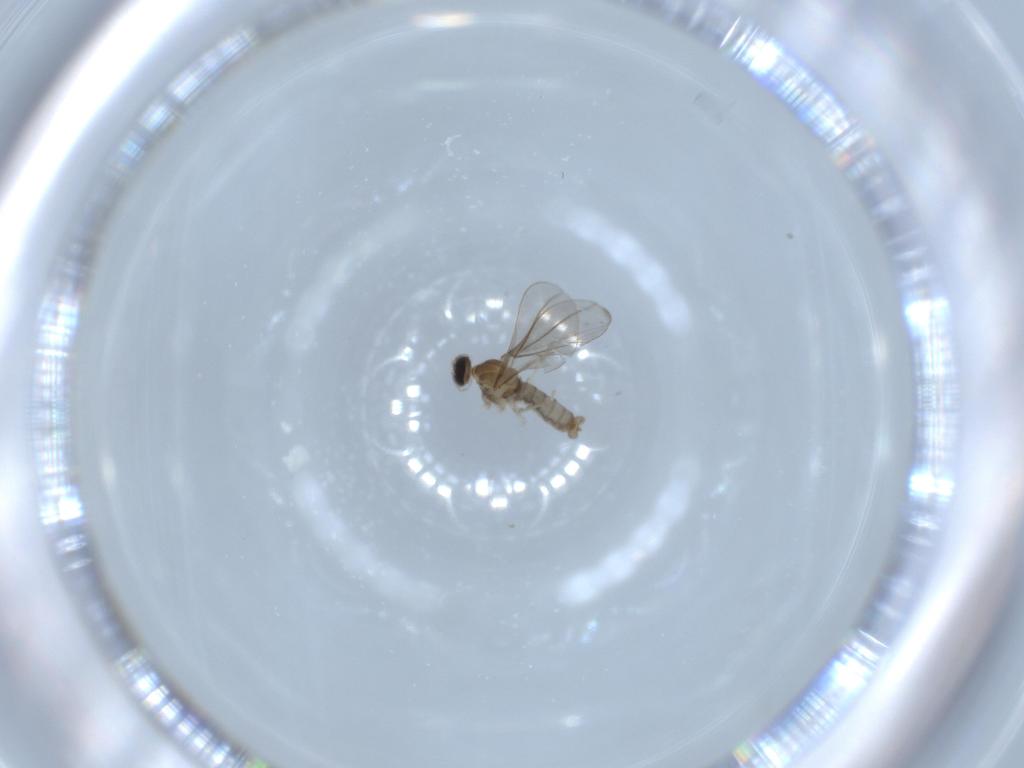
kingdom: Animalia
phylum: Arthropoda
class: Insecta
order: Diptera
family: Cecidomyiidae
